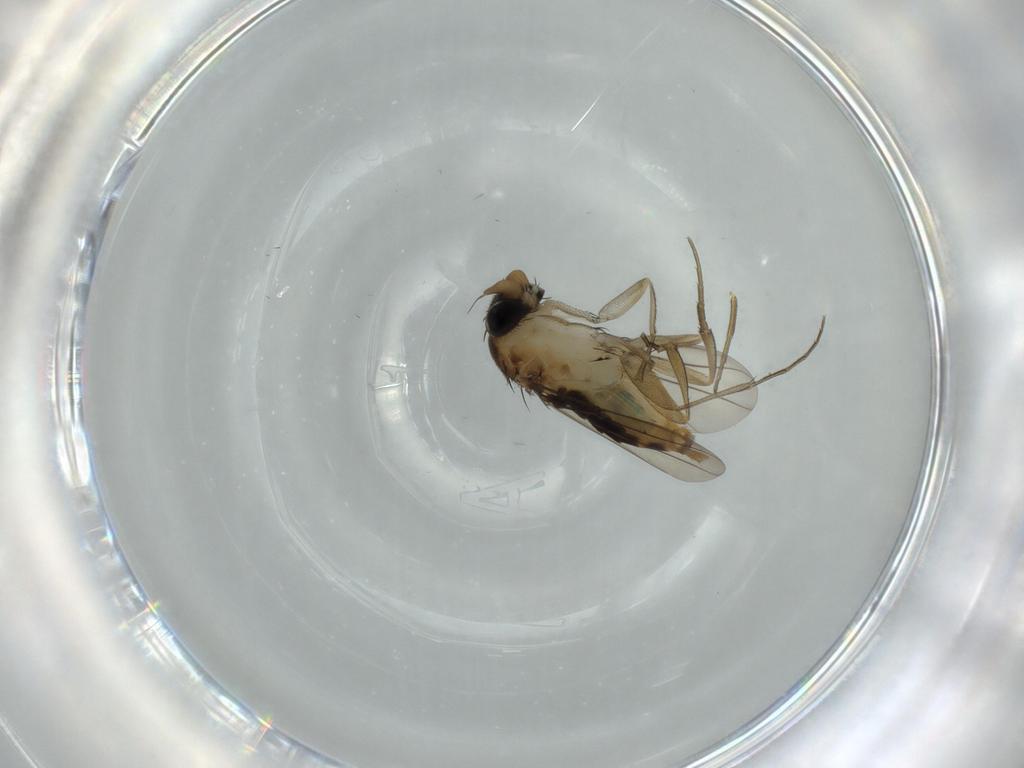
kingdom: Animalia
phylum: Arthropoda
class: Insecta
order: Diptera
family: Phoridae
